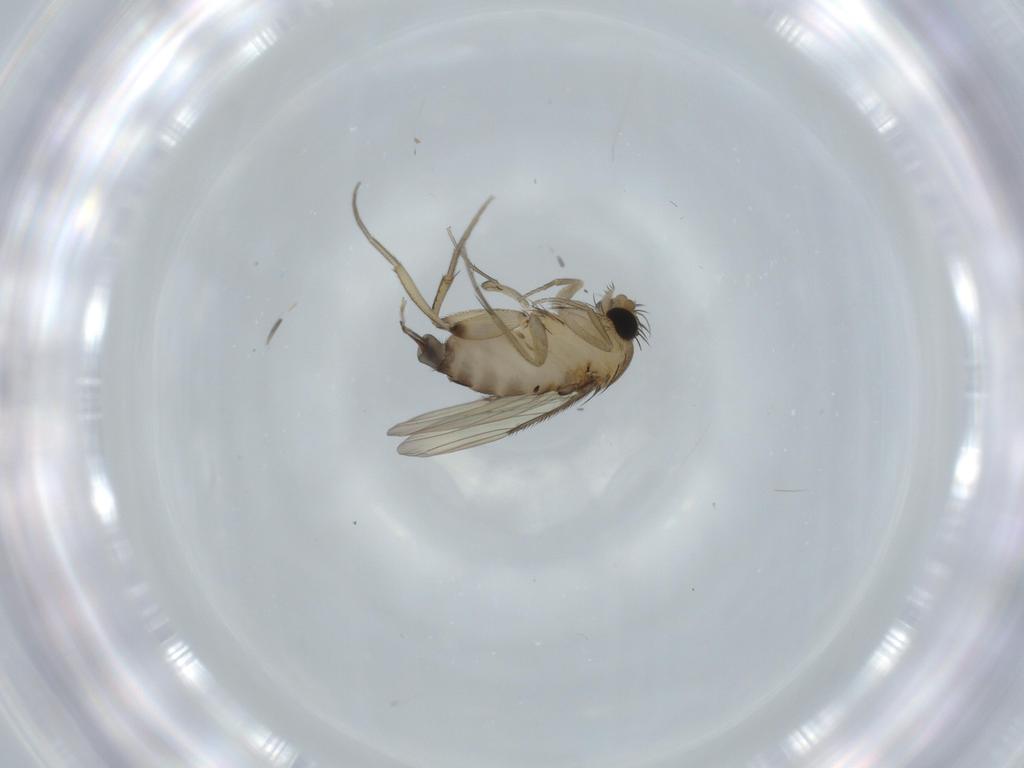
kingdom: Animalia
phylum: Arthropoda
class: Insecta
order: Diptera
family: Phoridae
